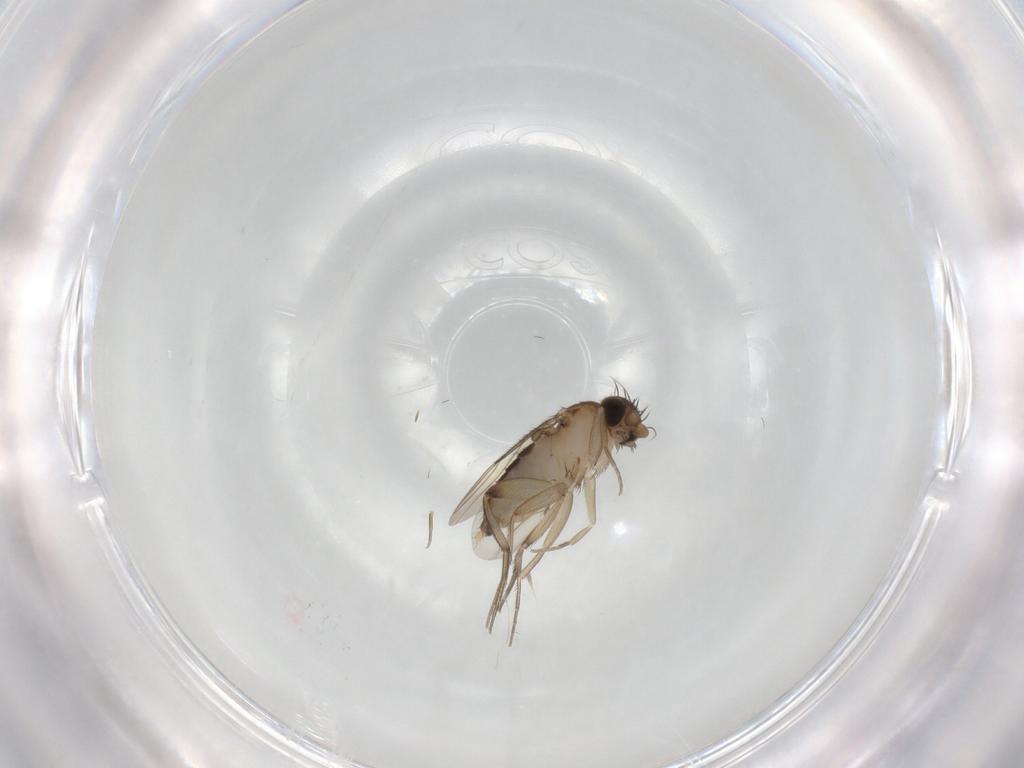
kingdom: Animalia
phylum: Arthropoda
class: Insecta
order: Diptera
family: Phoridae
